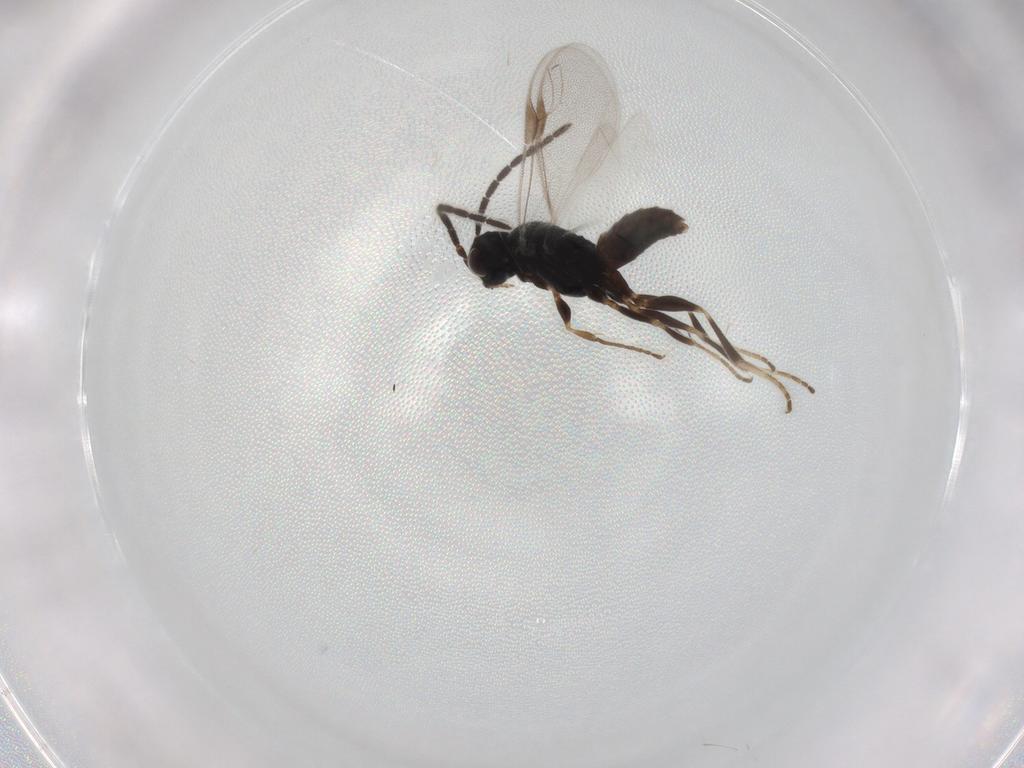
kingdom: Animalia
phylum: Arthropoda
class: Insecta
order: Hymenoptera
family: Dryinidae
